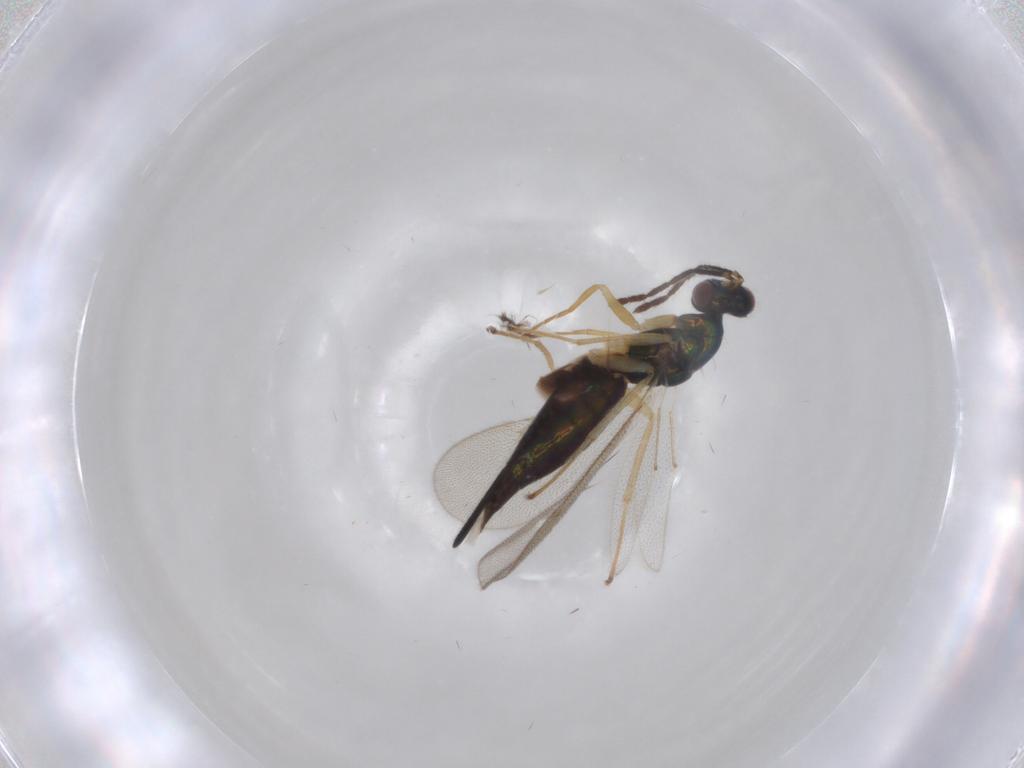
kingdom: Animalia
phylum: Arthropoda
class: Insecta
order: Hymenoptera
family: Eulophidae
